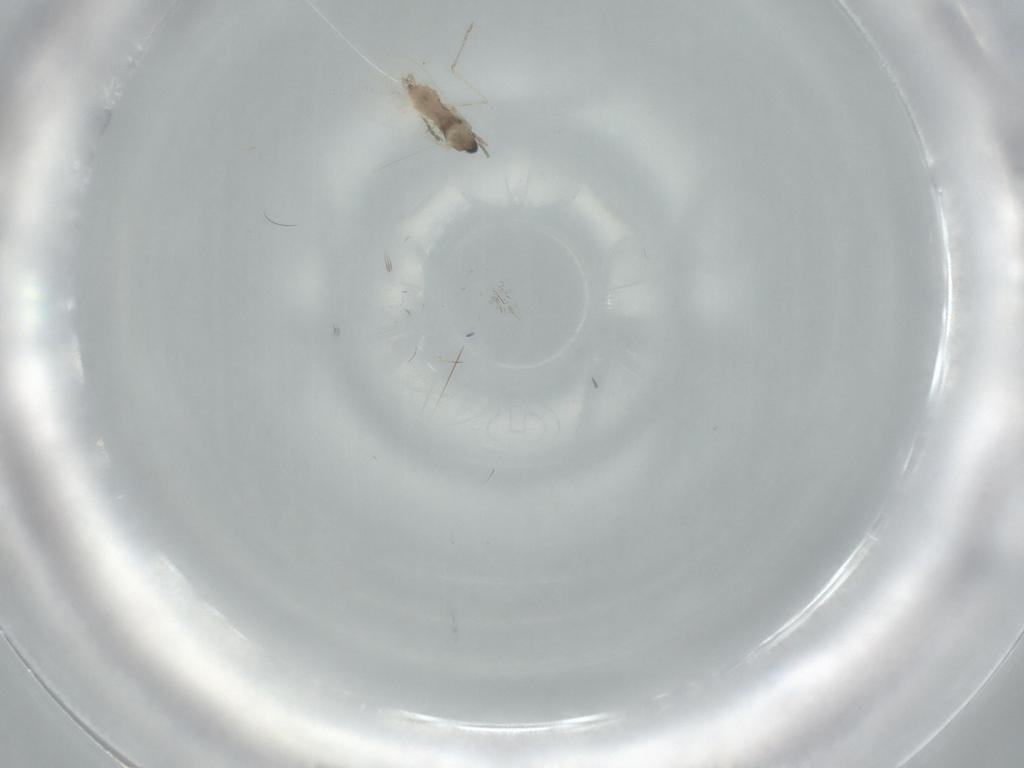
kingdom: Animalia
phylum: Arthropoda
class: Insecta
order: Diptera
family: Cecidomyiidae
